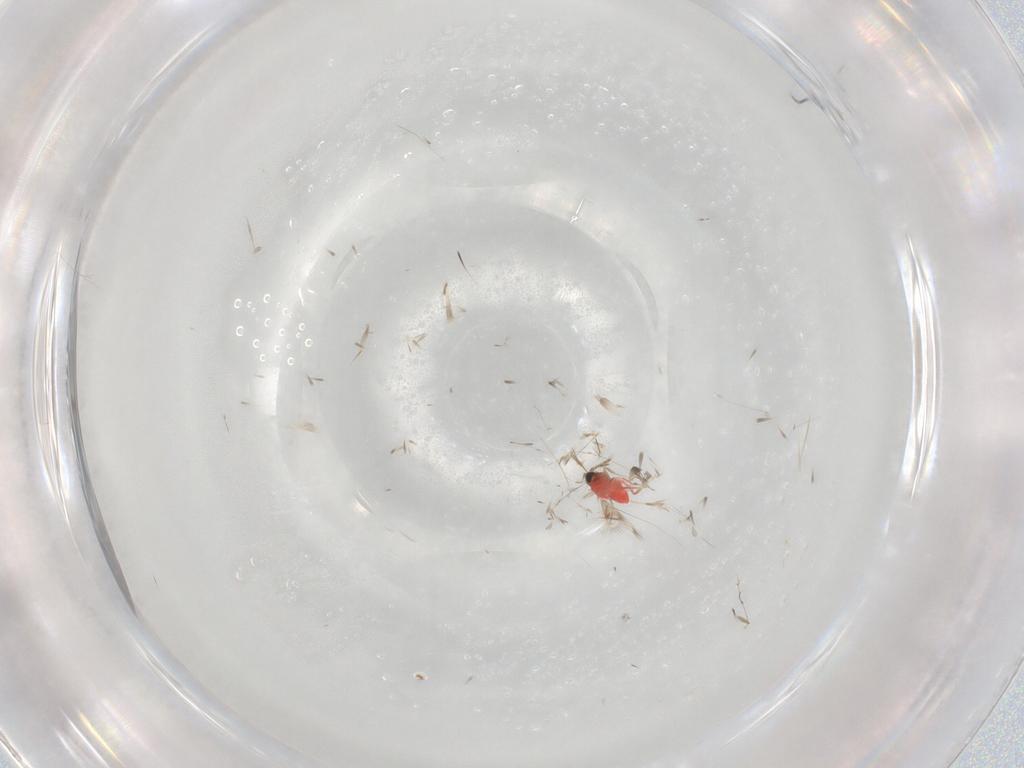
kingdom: Animalia
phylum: Arthropoda
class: Insecta
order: Hymenoptera
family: Trichogrammatidae
